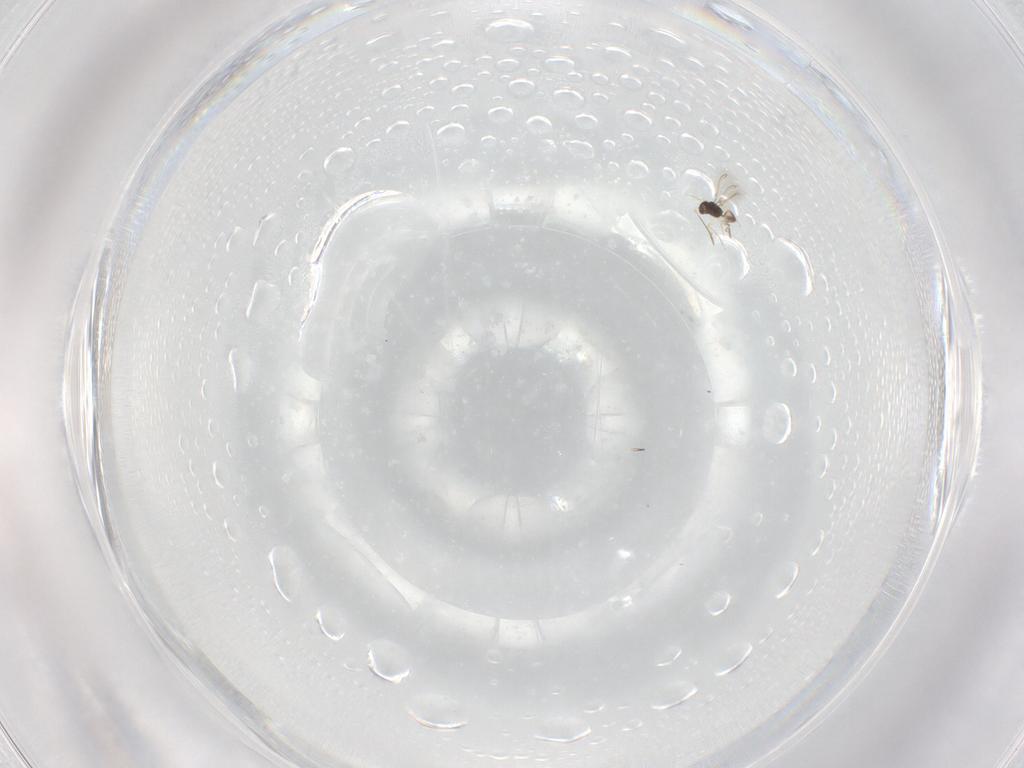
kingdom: Animalia
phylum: Arthropoda
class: Insecta
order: Hymenoptera
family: Mymaridae
